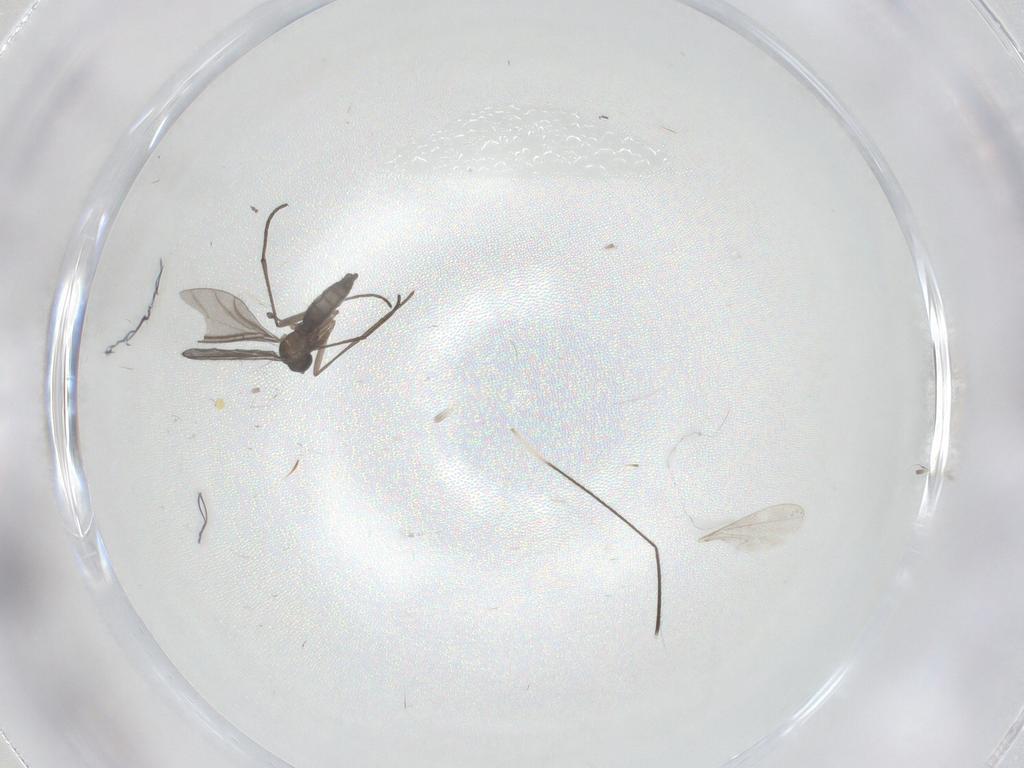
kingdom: Animalia
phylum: Arthropoda
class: Insecta
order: Diptera
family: Sciaridae
